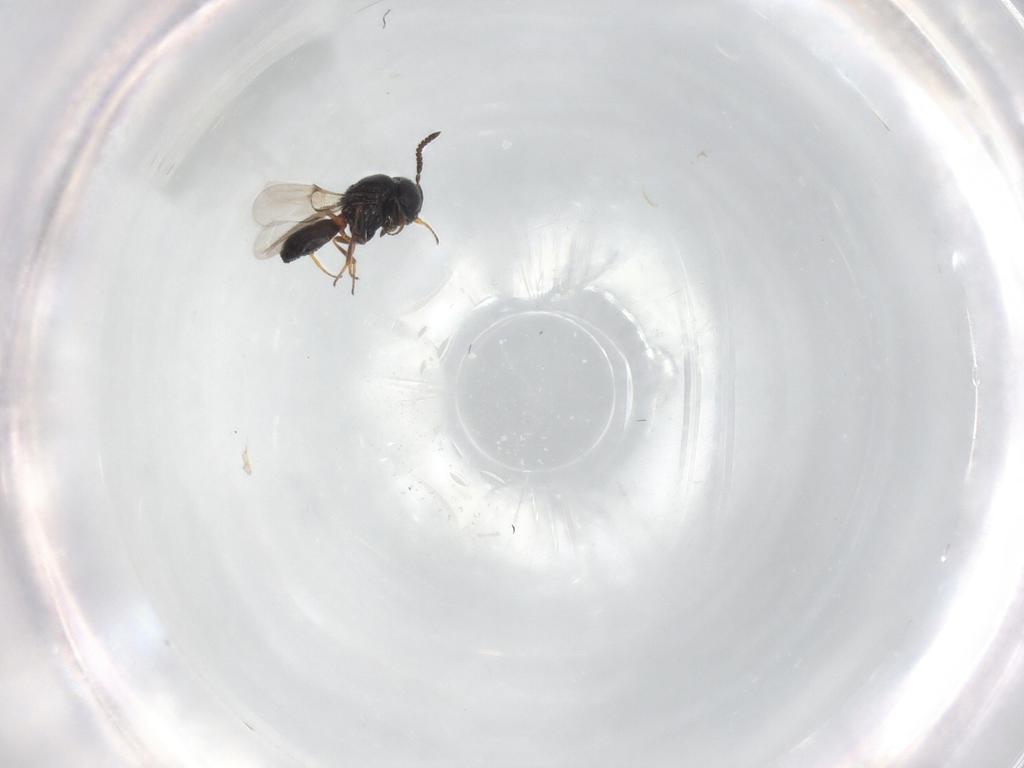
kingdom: Animalia
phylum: Arthropoda
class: Insecta
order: Hymenoptera
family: Scelionidae
